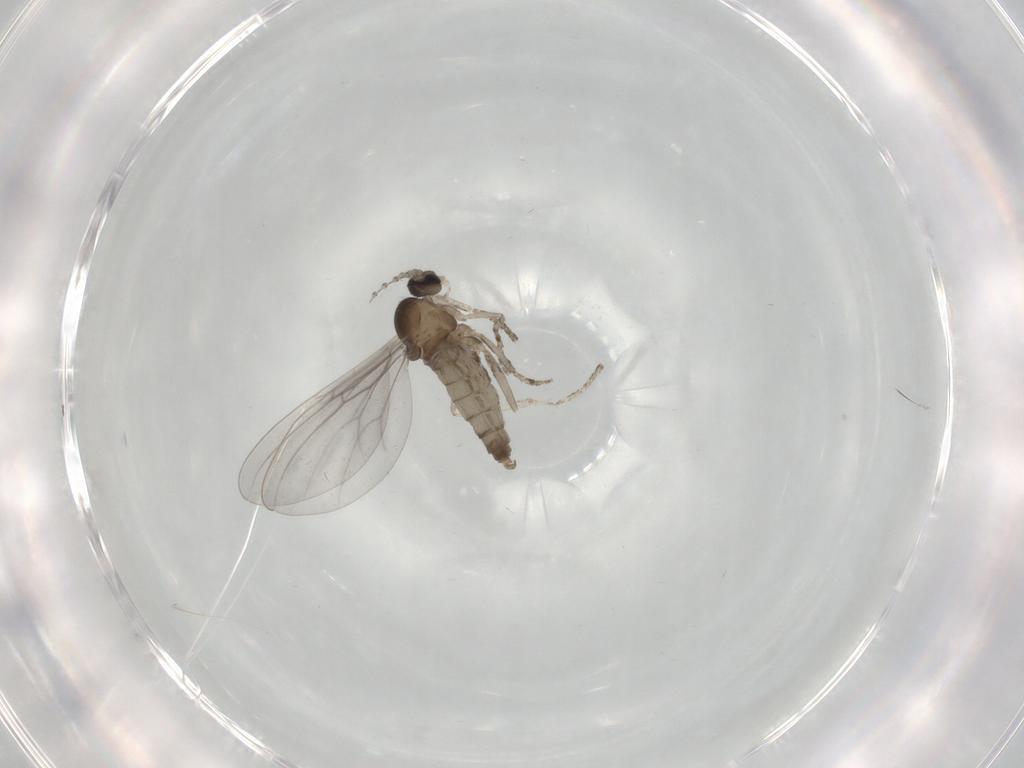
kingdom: Animalia
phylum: Arthropoda
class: Insecta
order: Diptera
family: Cecidomyiidae
